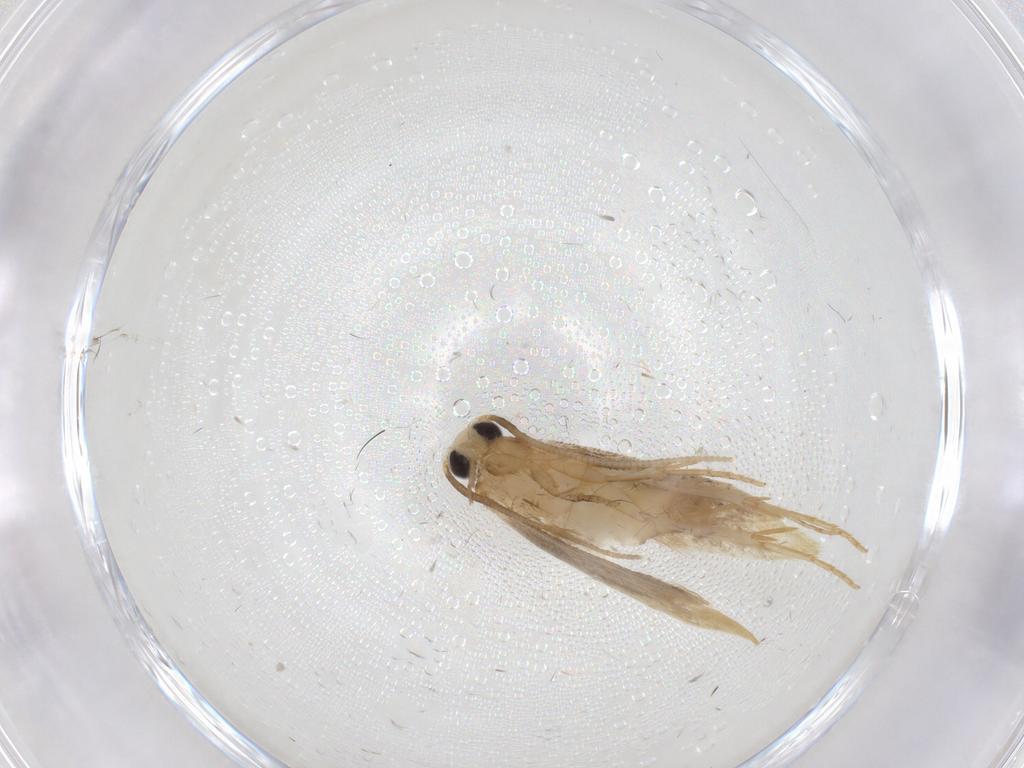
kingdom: Animalia
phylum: Arthropoda
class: Insecta
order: Lepidoptera
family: Tineidae
